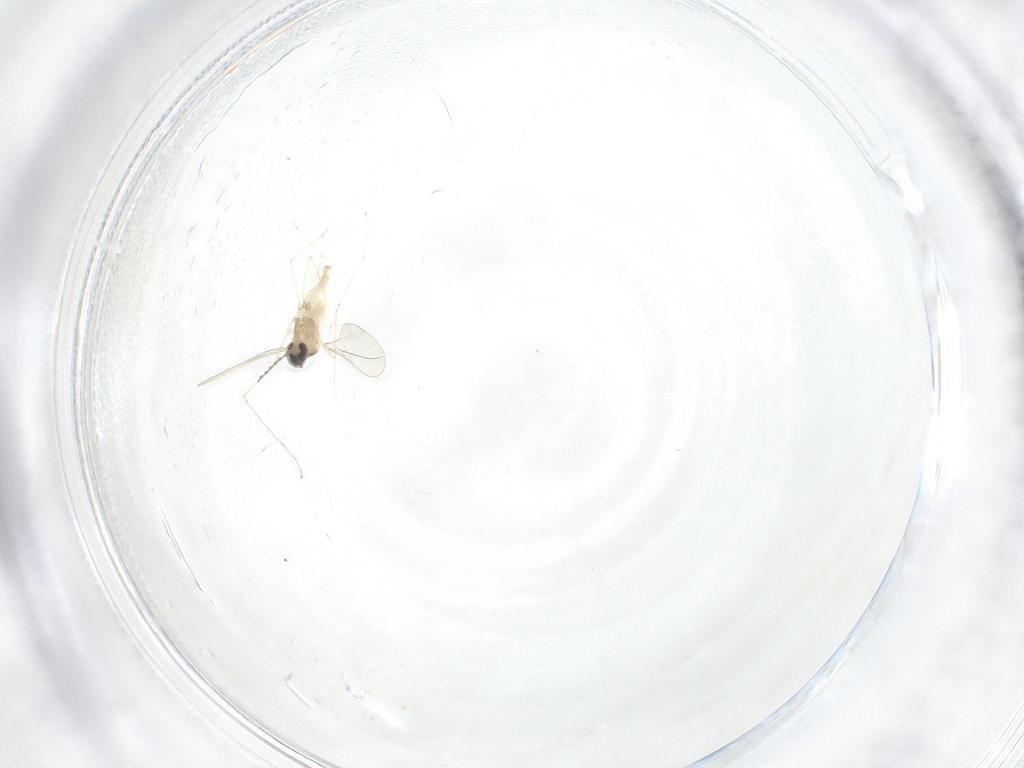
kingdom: Animalia
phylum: Arthropoda
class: Insecta
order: Diptera
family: Cecidomyiidae
